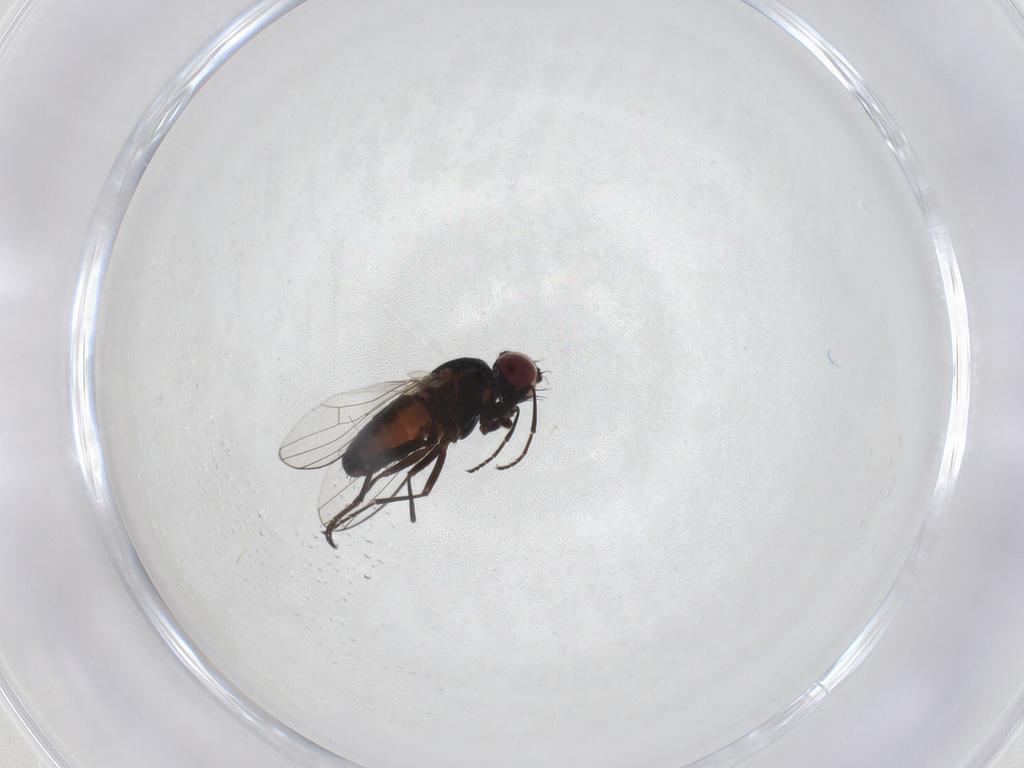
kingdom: Animalia
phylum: Arthropoda
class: Insecta
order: Diptera
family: Carnidae
